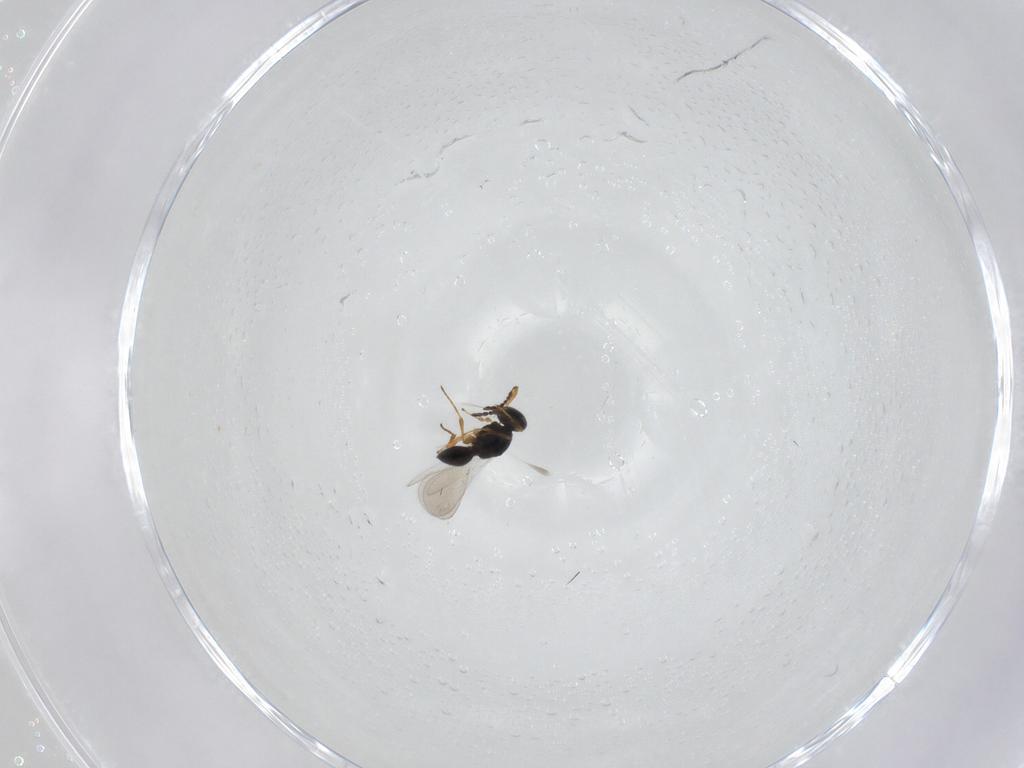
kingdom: Animalia
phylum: Arthropoda
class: Insecta
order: Hymenoptera
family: Platygastridae
